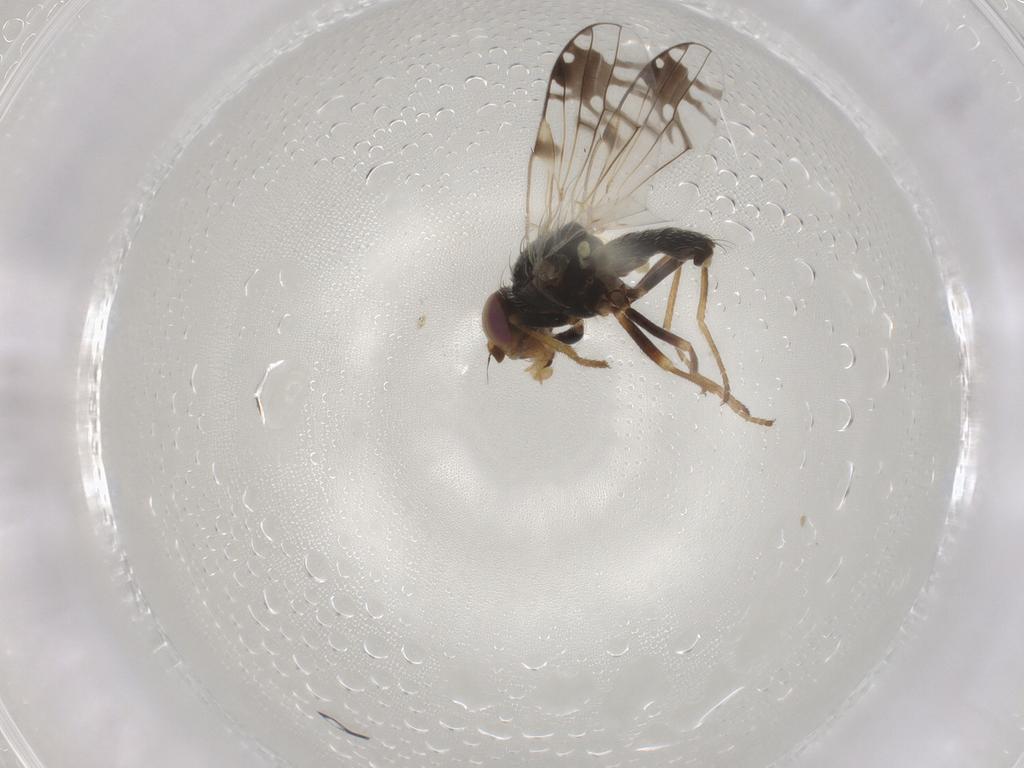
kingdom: Animalia
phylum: Arthropoda
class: Insecta
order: Diptera
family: Tephritidae
